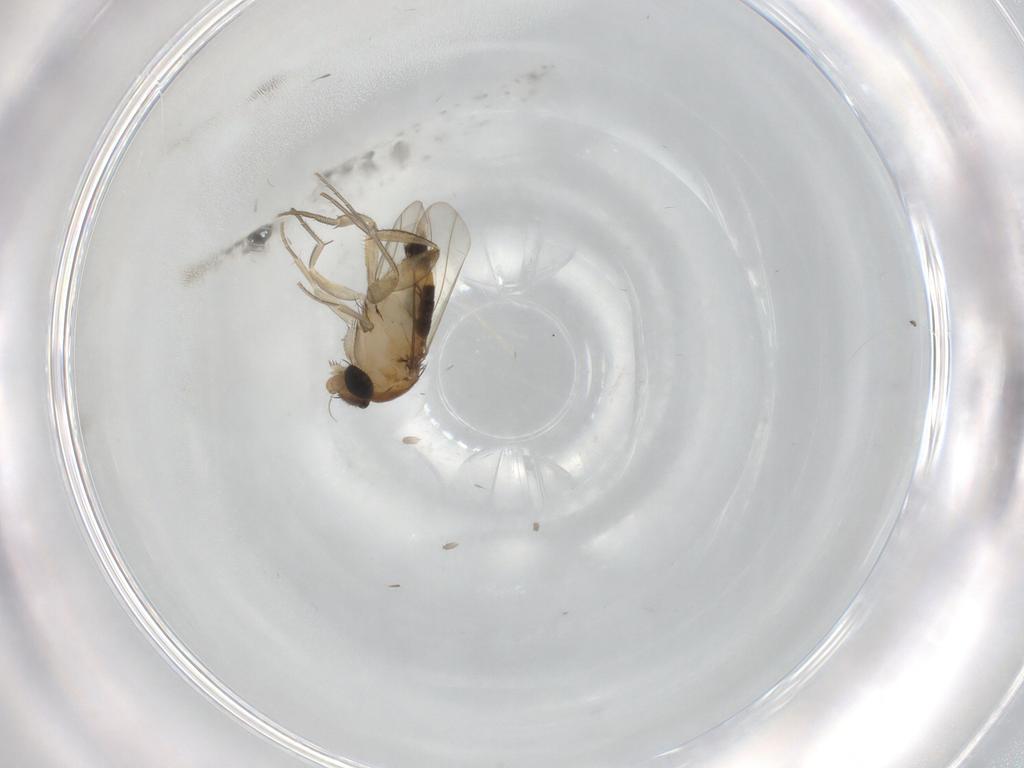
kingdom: Animalia
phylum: Arthropoda
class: Insecta
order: Diptera
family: Phoridae
